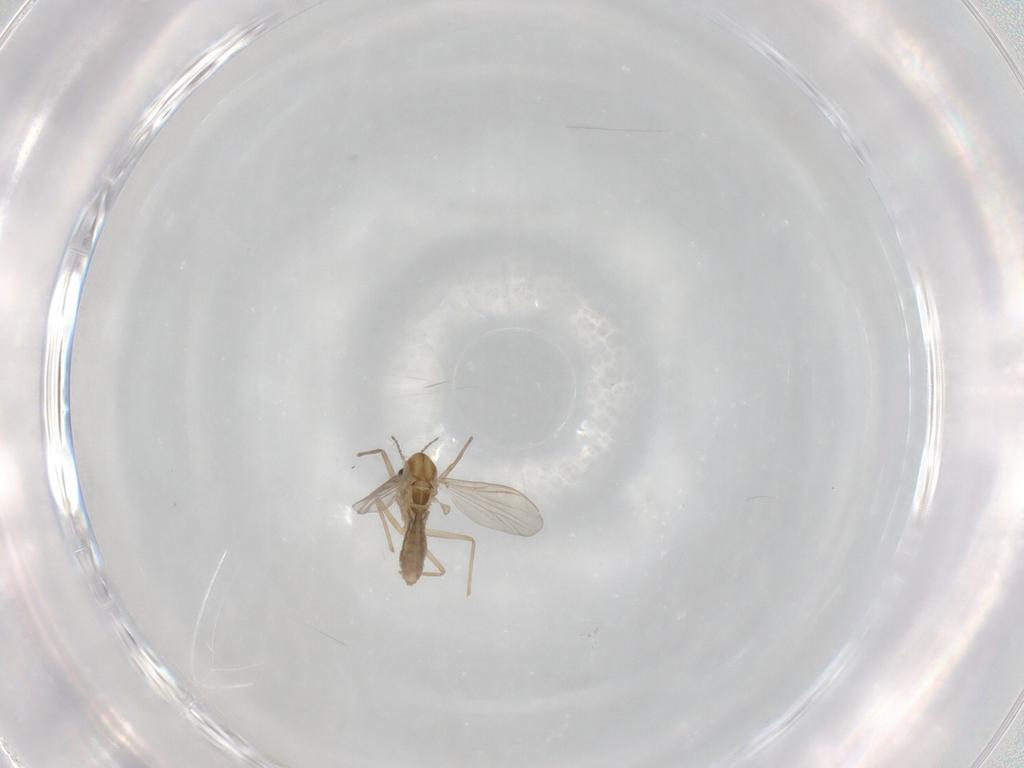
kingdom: Animalia
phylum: Arthropoda
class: Insecta
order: Diptera
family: Chironomidae
